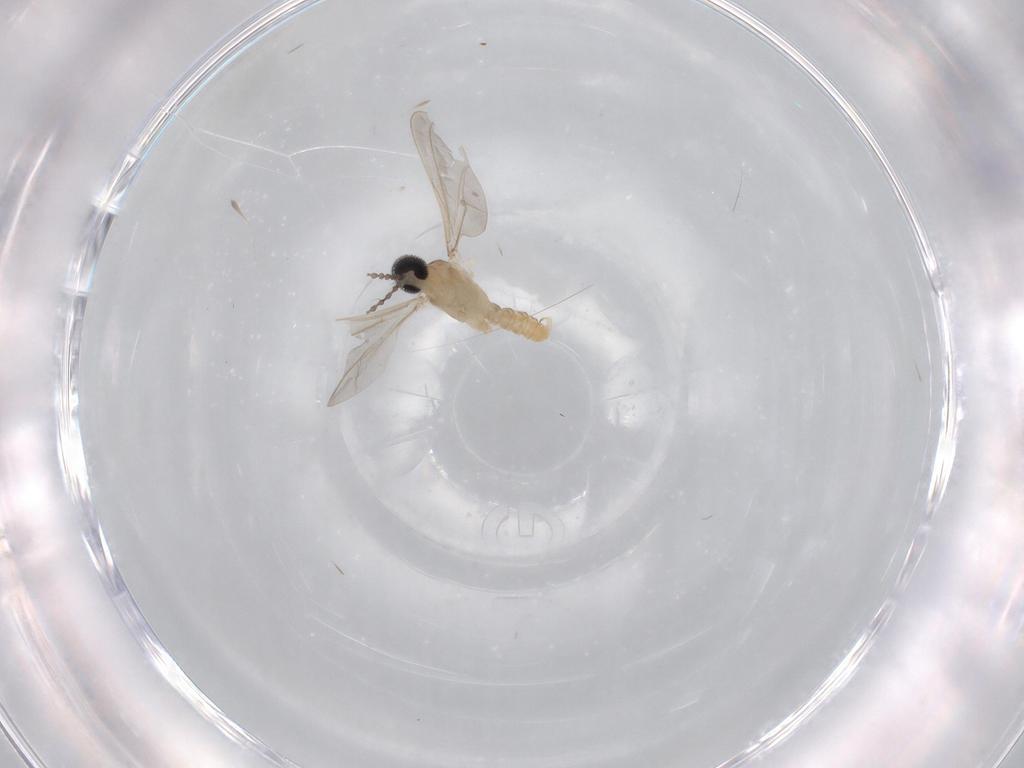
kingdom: Animalia
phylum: Arthropoda
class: Insecta
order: Diptera
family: Cecidomyiidae
